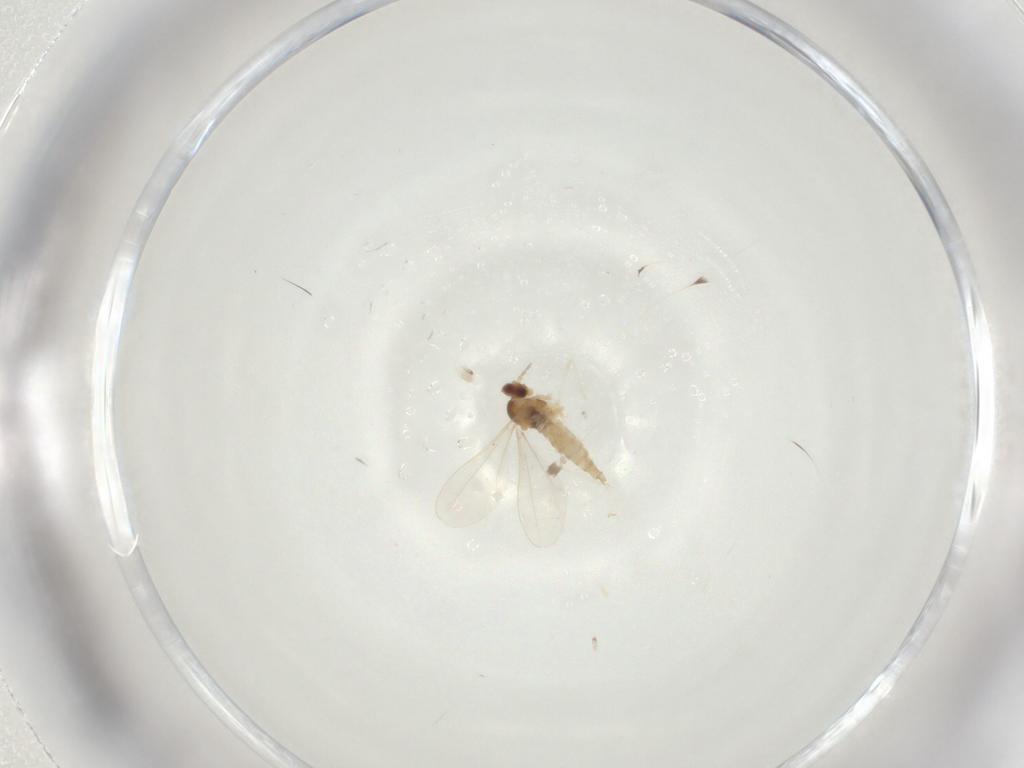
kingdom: Animalia
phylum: Arthropoda
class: Insecta
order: Diptera
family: Cecidomyiidae
